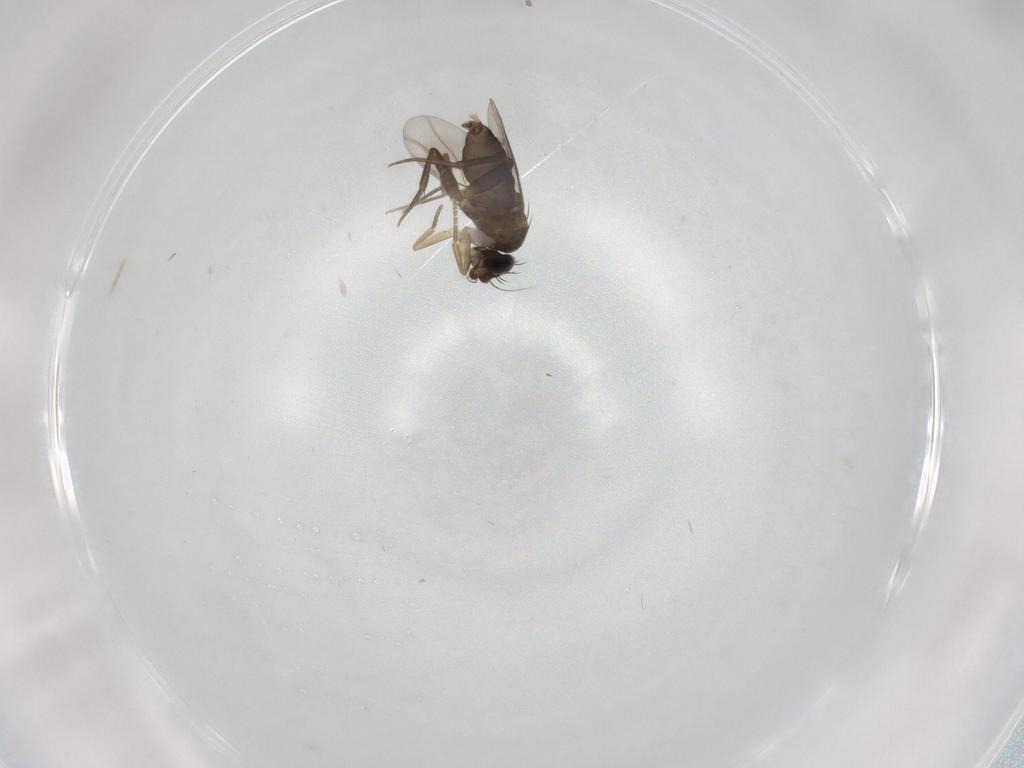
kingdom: Animalia
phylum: Arthropoda
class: Insecta
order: Diptera
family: Phoridae
